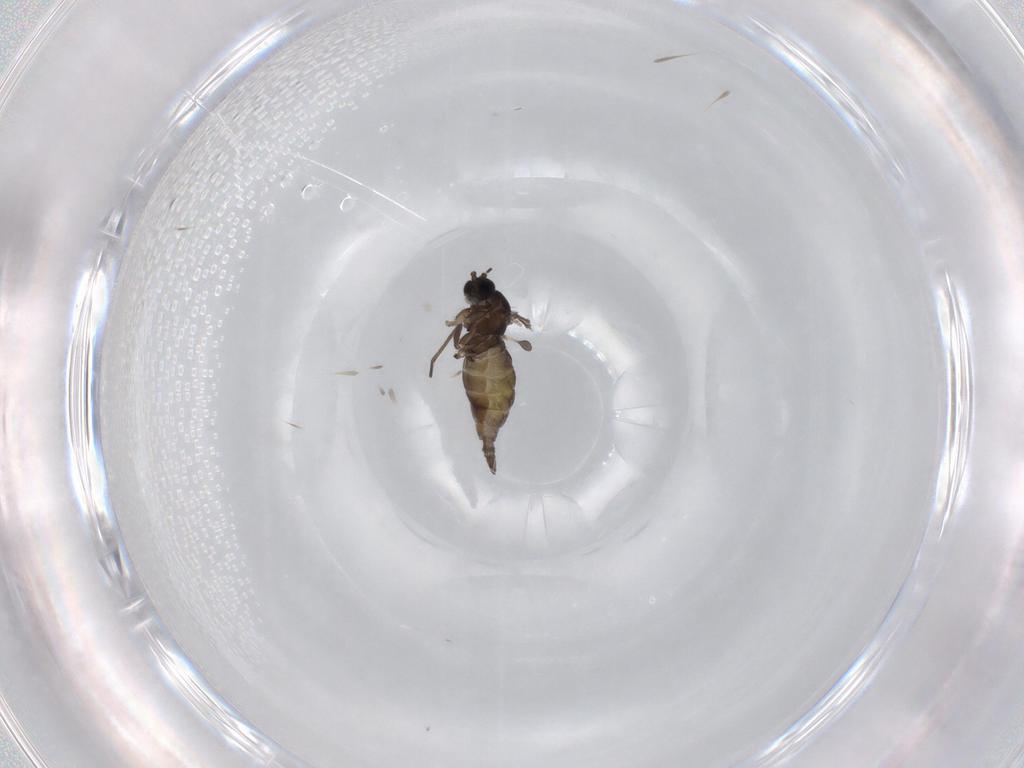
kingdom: Animalia
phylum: Arthropoda
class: Insecta
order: Diptera
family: Sciaridae
